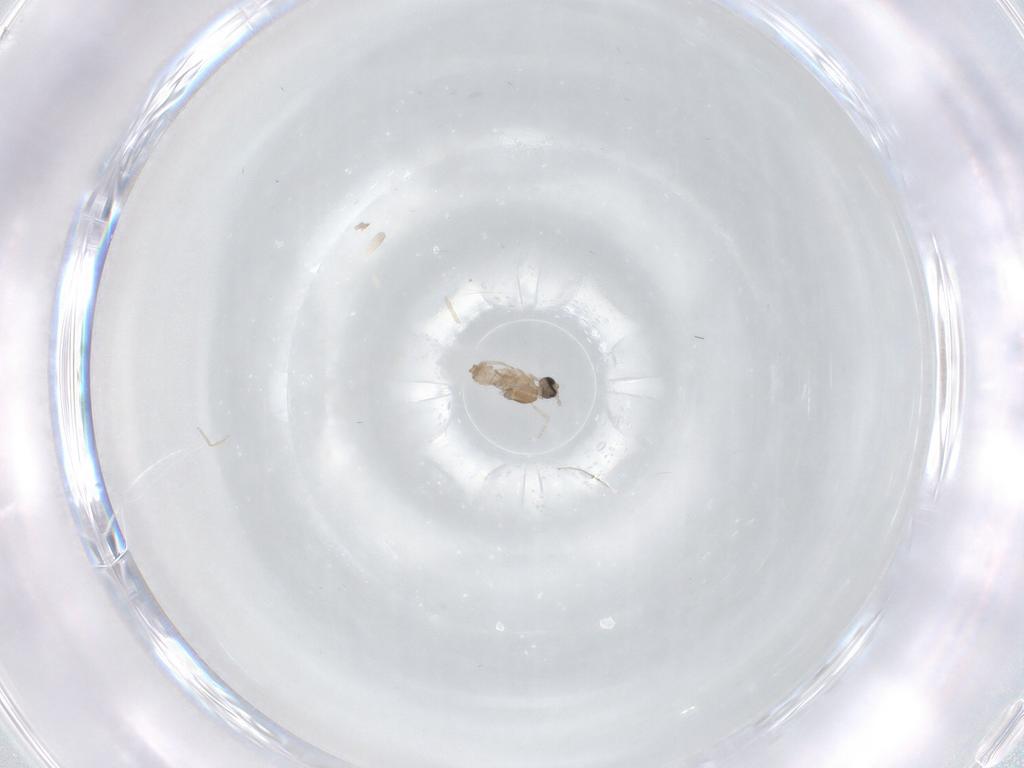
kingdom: Animalia
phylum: Arthropoda
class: Insecta
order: Diptera
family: Cecidomyiidae
